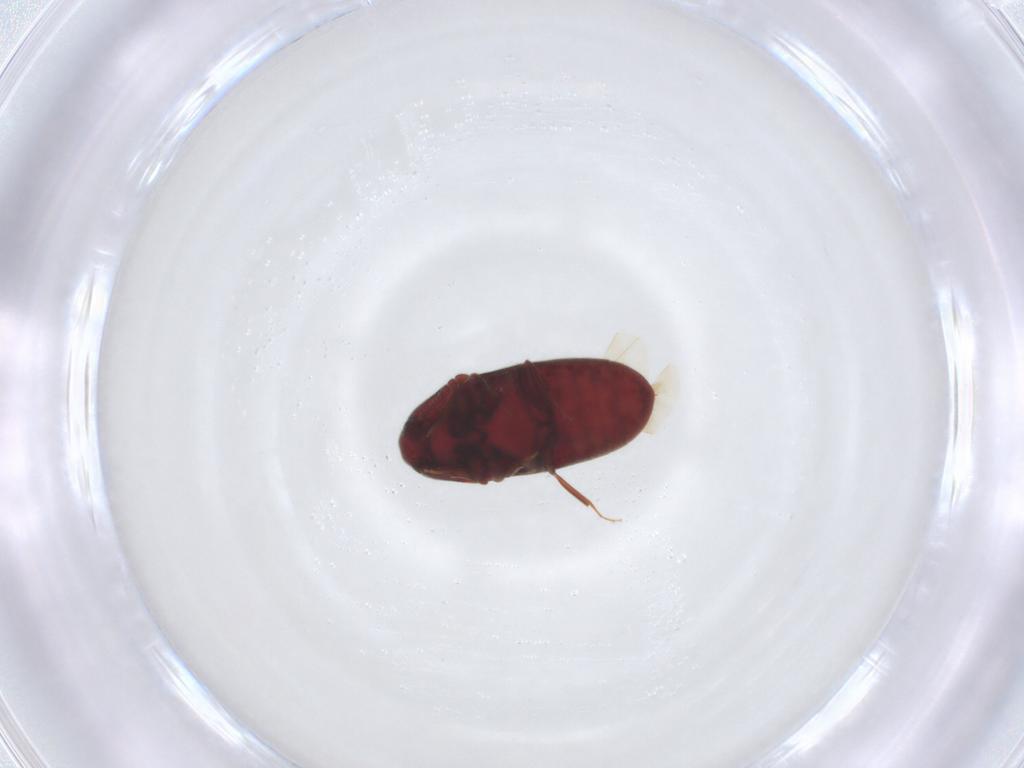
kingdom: Animalia
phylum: Arthropoda
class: Insecta
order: Coleoptera
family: Throscidae
